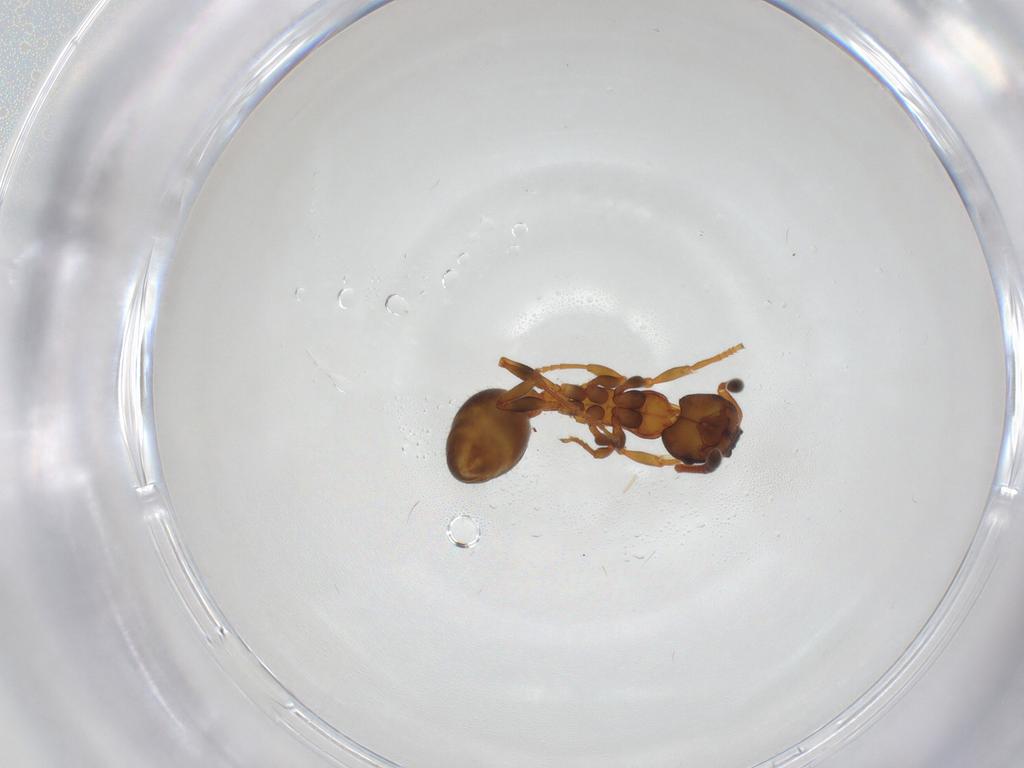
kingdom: Animalia
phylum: Arthropoda
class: Insecta
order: Hymenoptera
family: Formicidae
